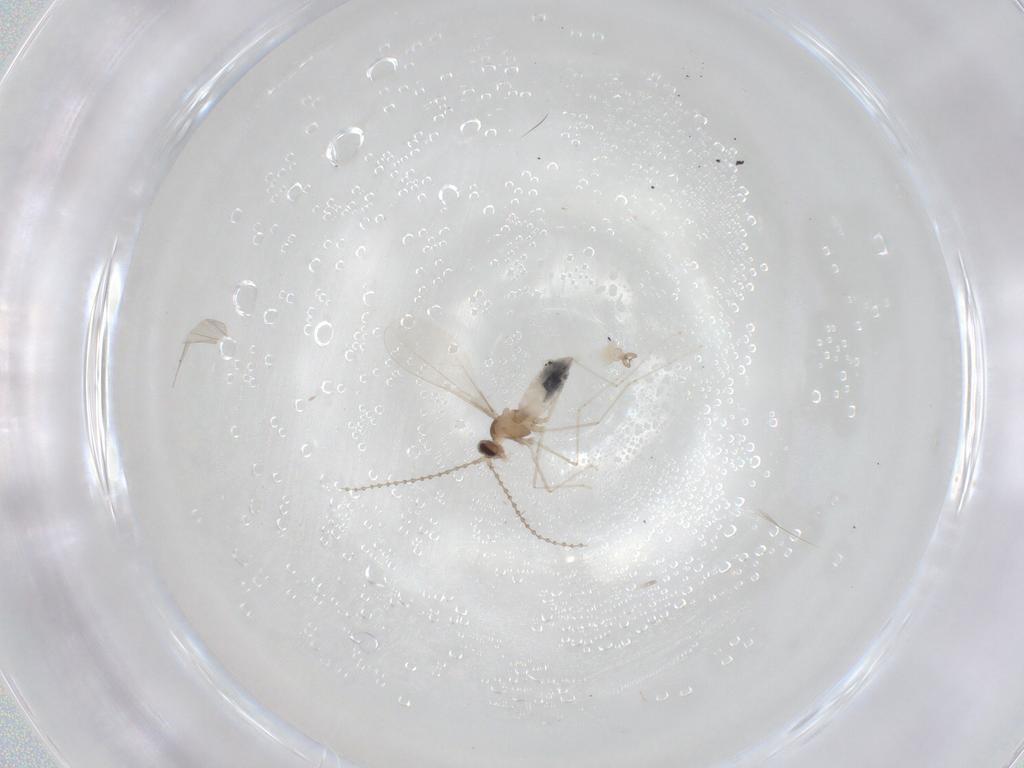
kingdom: Animalia
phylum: Arthropoda
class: Insecta
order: Diptera
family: Cecidomyiidae
